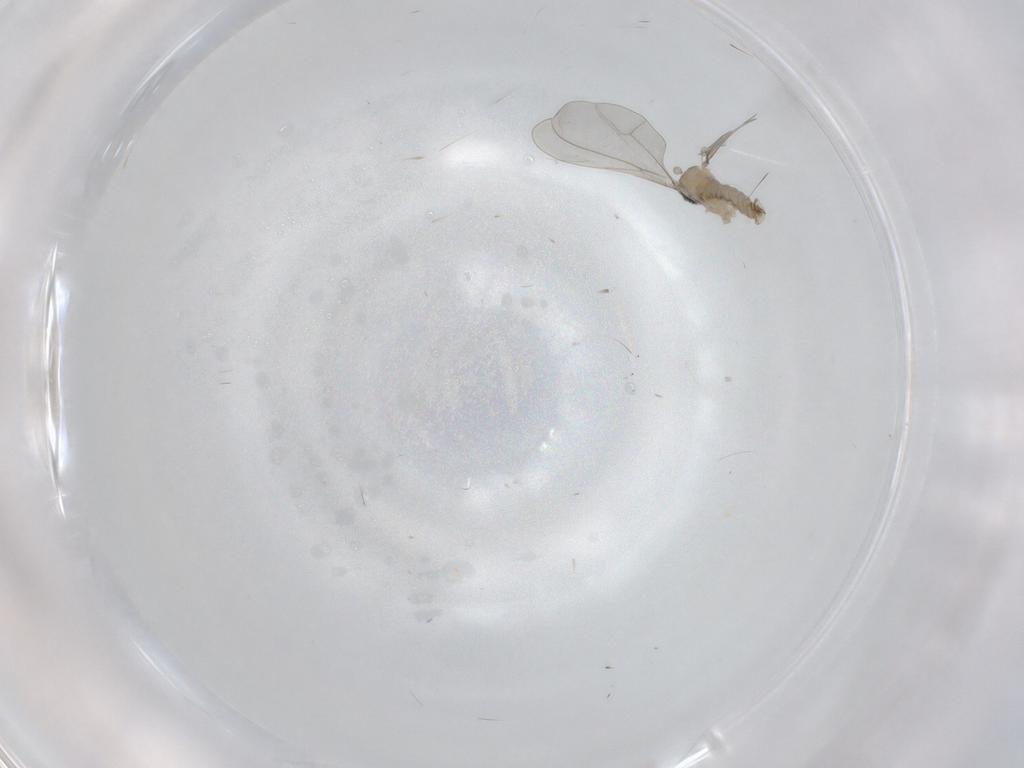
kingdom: Animalia
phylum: Arthropoda
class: Insecta
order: Diptera
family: Cecidomyiidae
